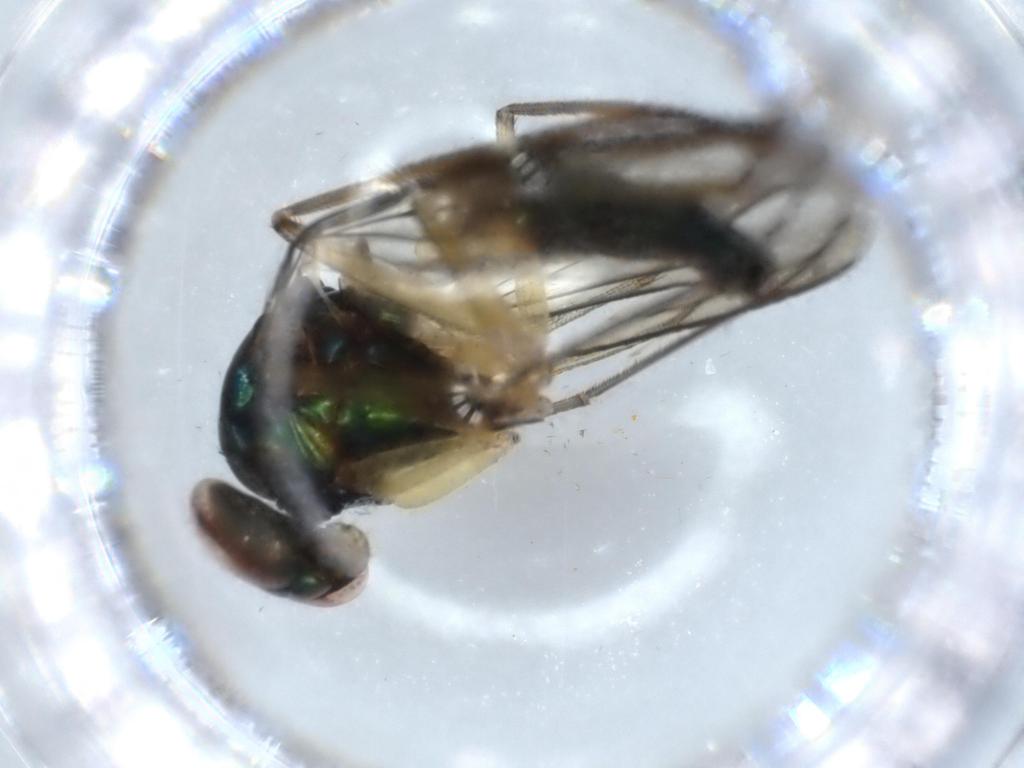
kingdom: Animalia
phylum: Arthropoda
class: Insecta
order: Diptera
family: Dolichopodidae
